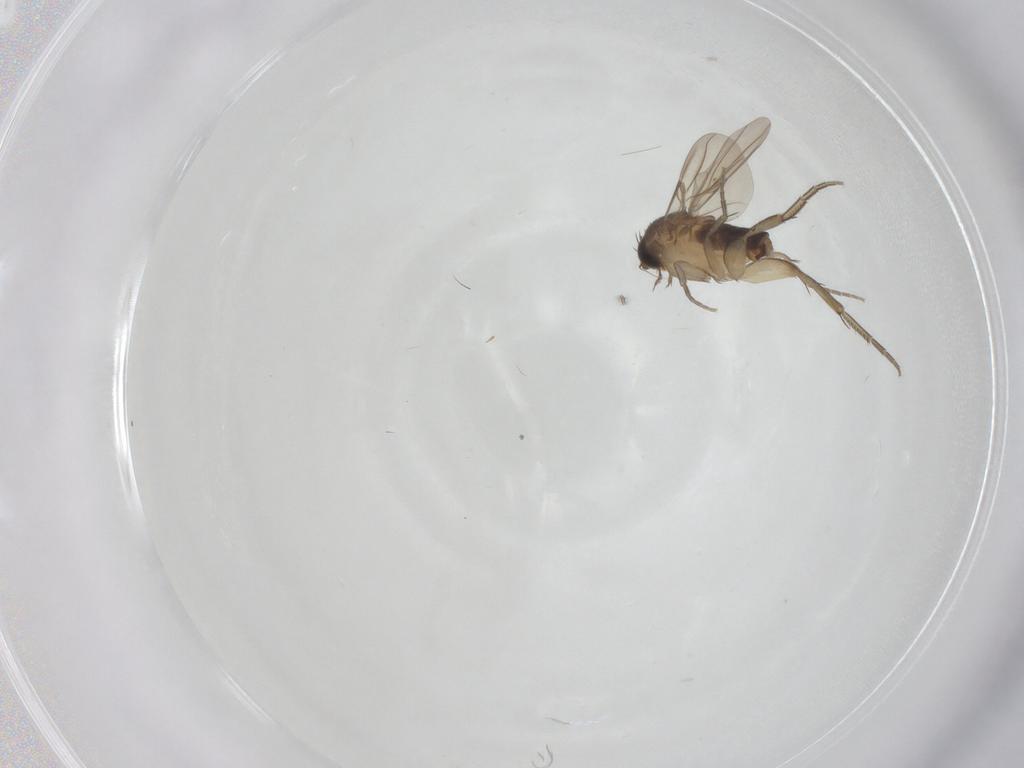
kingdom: Animalia
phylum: Arthropoda
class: Insecta
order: Diptera
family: Phoridae
